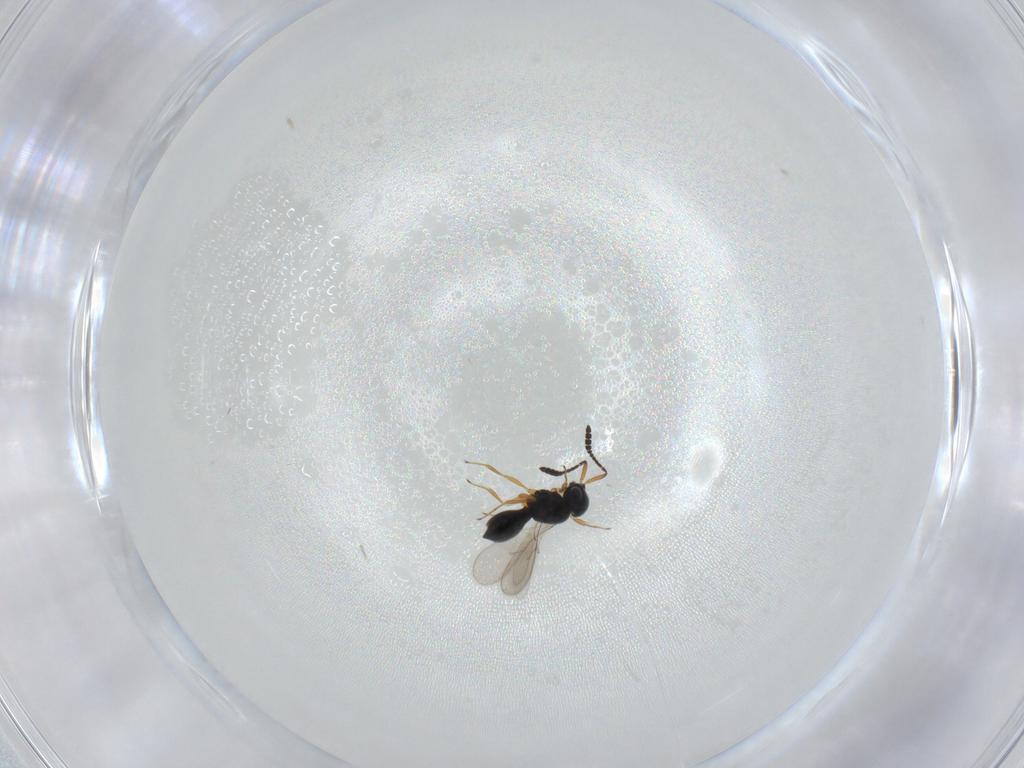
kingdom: Animalia
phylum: Arthropoda
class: Insecta
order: Hymenoptera
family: Scelionidae
